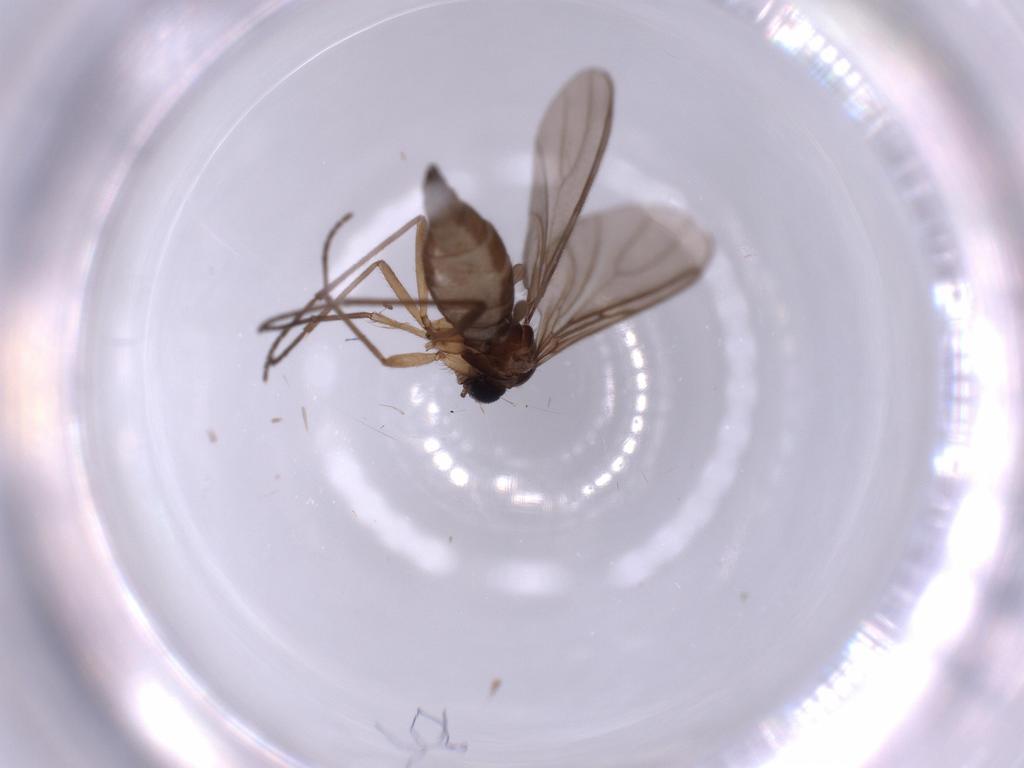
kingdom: Animalia
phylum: Arthropoda
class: Insecta
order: Diptera
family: Sciaridae
